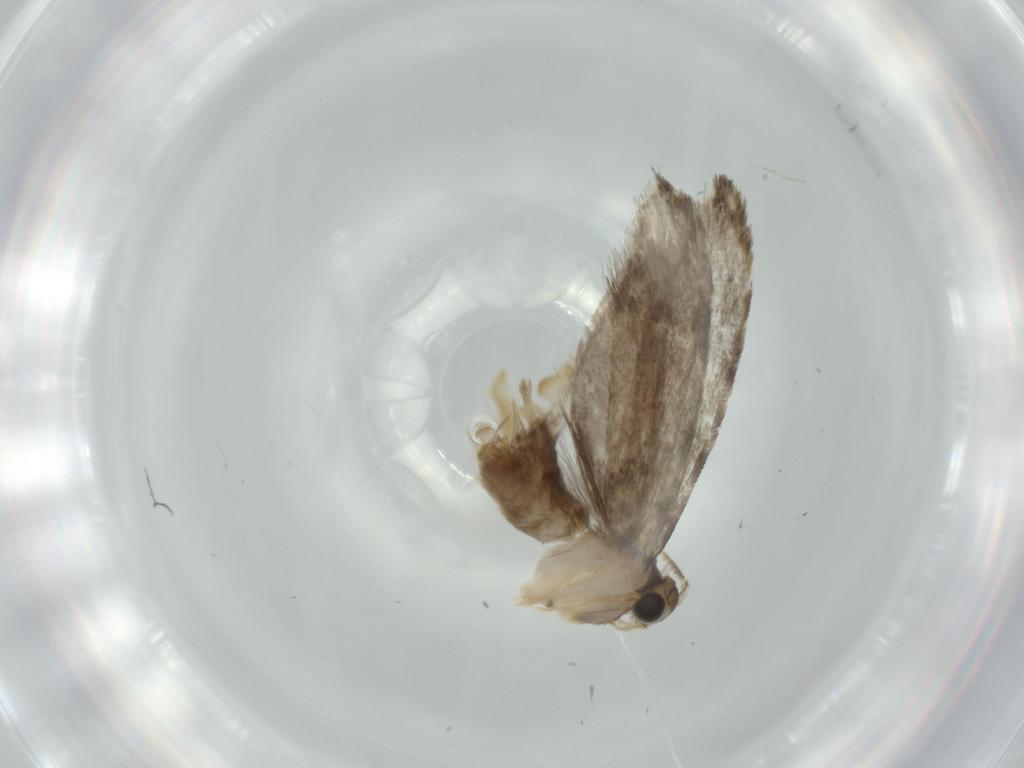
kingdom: Animalia
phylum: Arthropoda
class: Insecta
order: Lepidoptera
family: Tineidae
